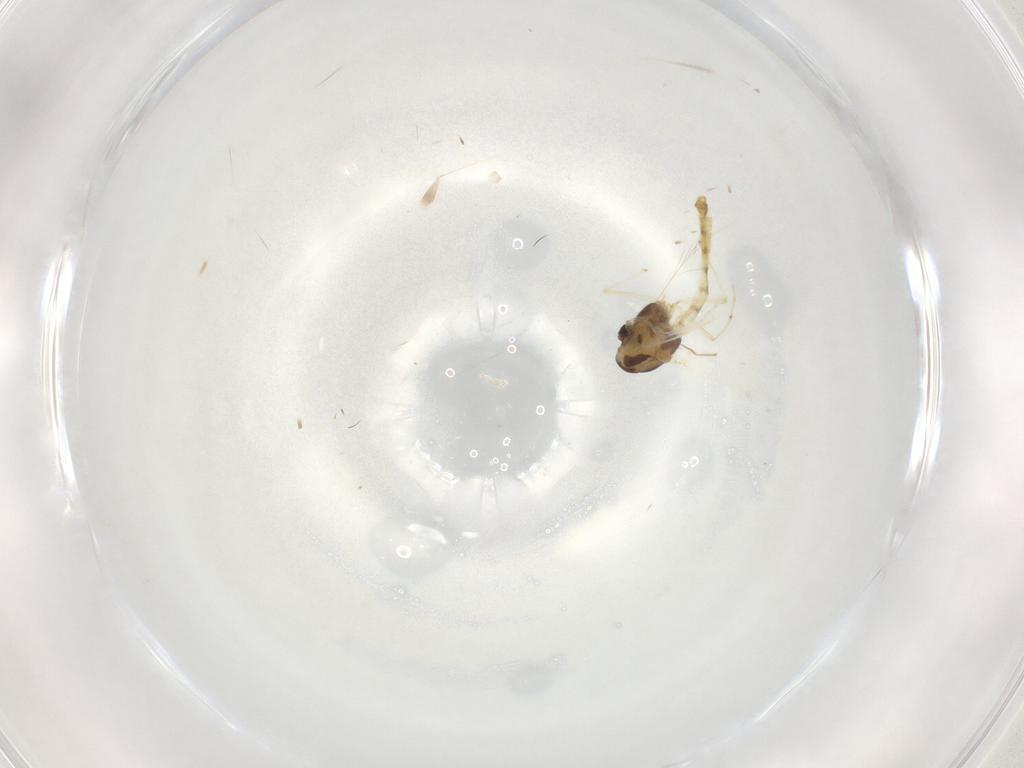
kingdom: Animalia
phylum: Arthropoda
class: Insecta
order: Diptera
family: Chironomidae
